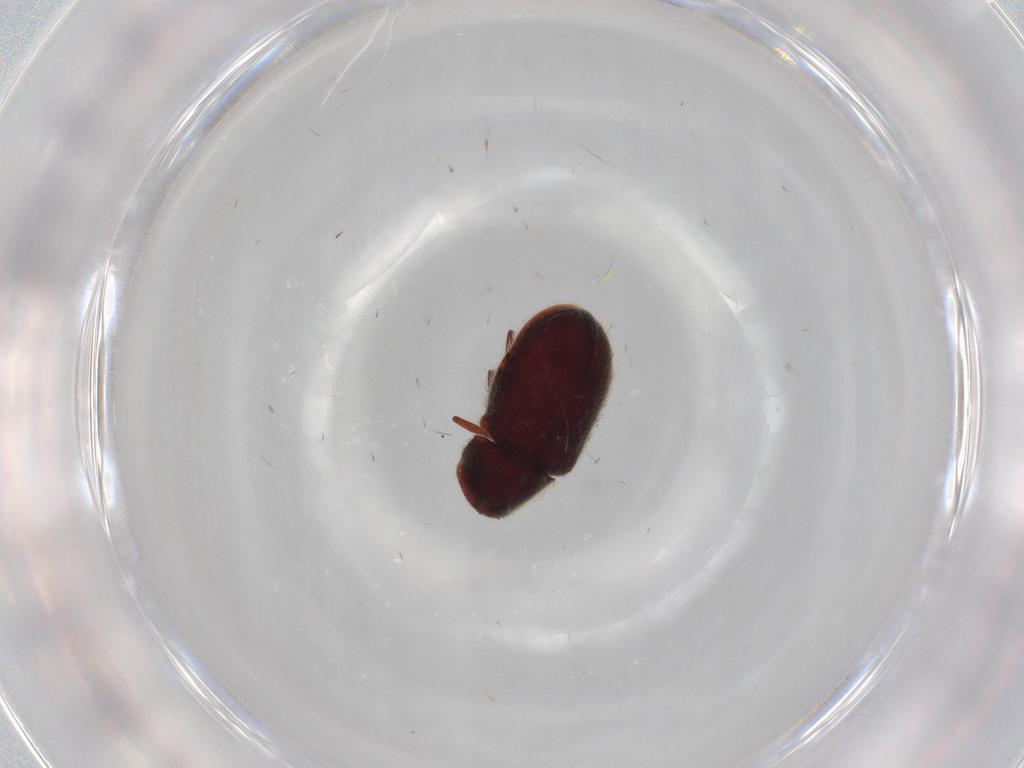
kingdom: Animalia
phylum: Arthropoda
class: Insecta
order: Coleoptera
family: Ptinidae
